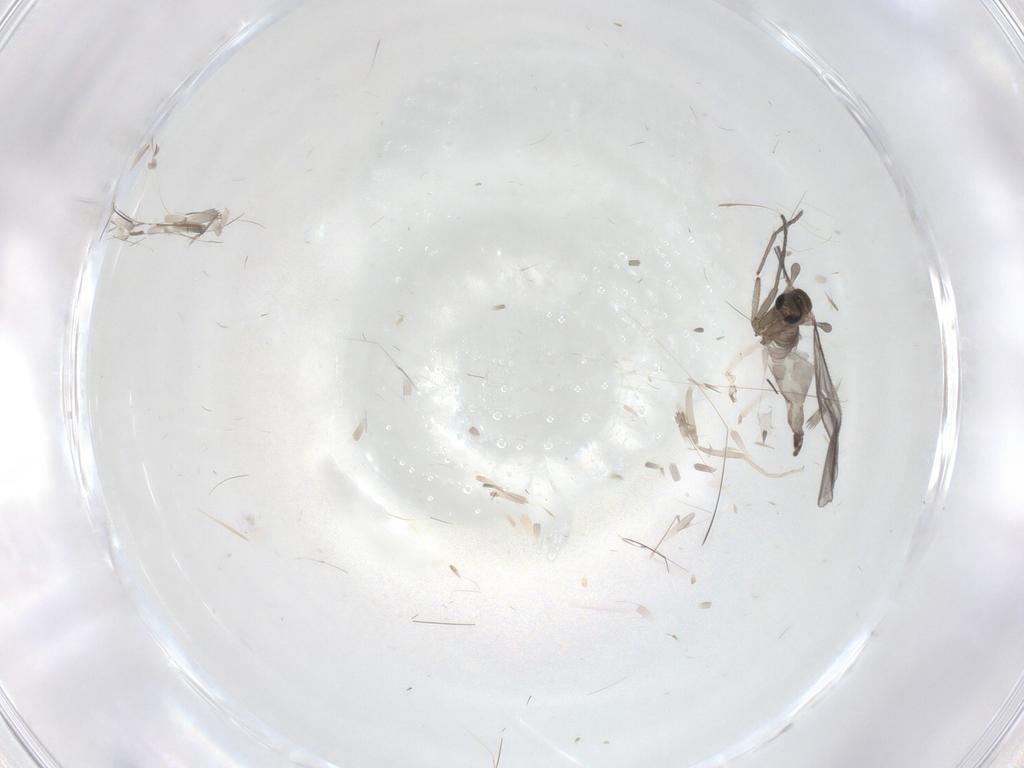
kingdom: Animalia
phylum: Arthropoda
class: Insecta
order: Diptera
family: Sciaridae
